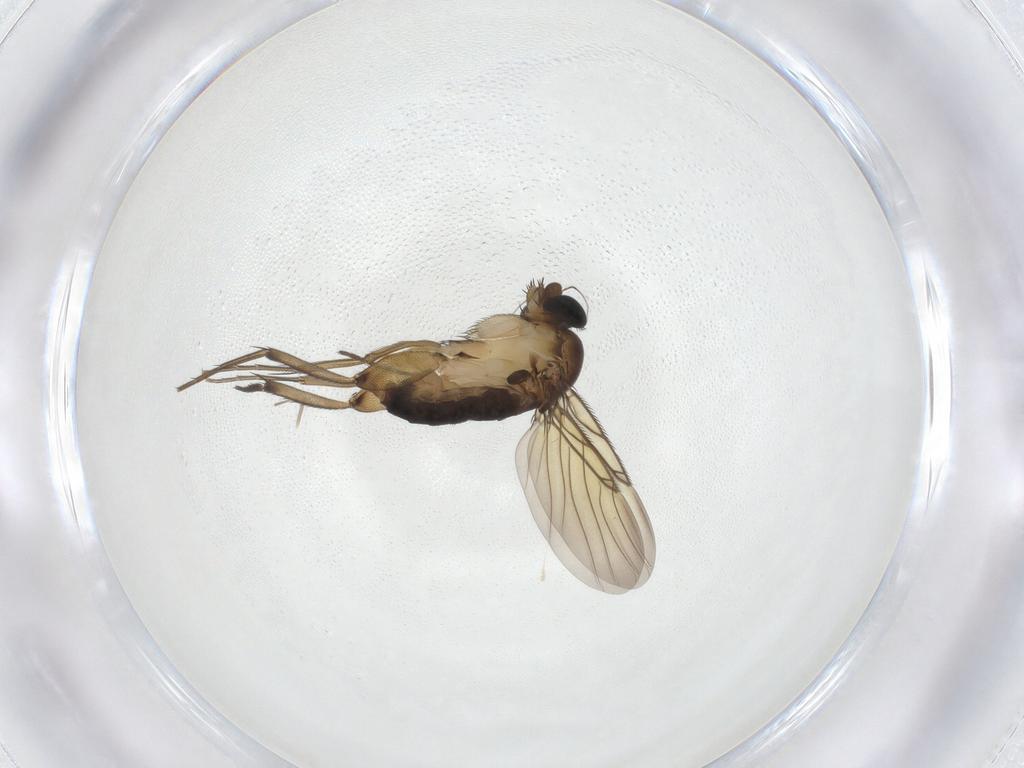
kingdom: Animalia
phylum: Arthropoda
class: Insecta
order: Diptera
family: Phoridae
